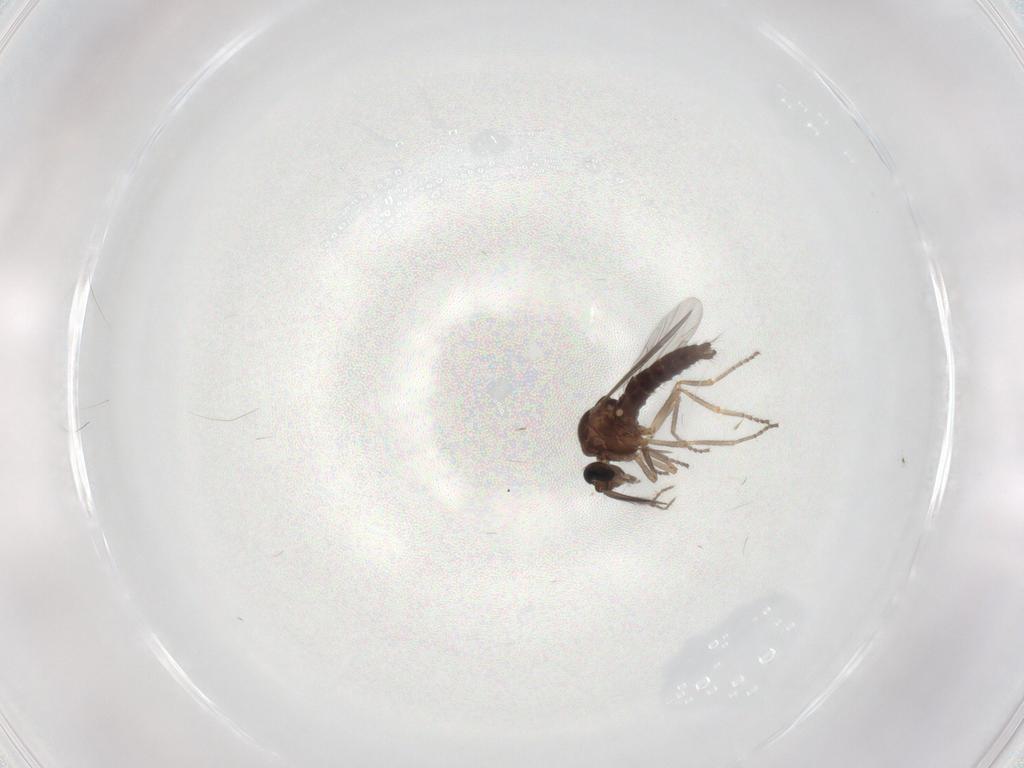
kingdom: Animalia
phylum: Arthropoda
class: Insecta
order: Diptera
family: Ceratopogonidae
